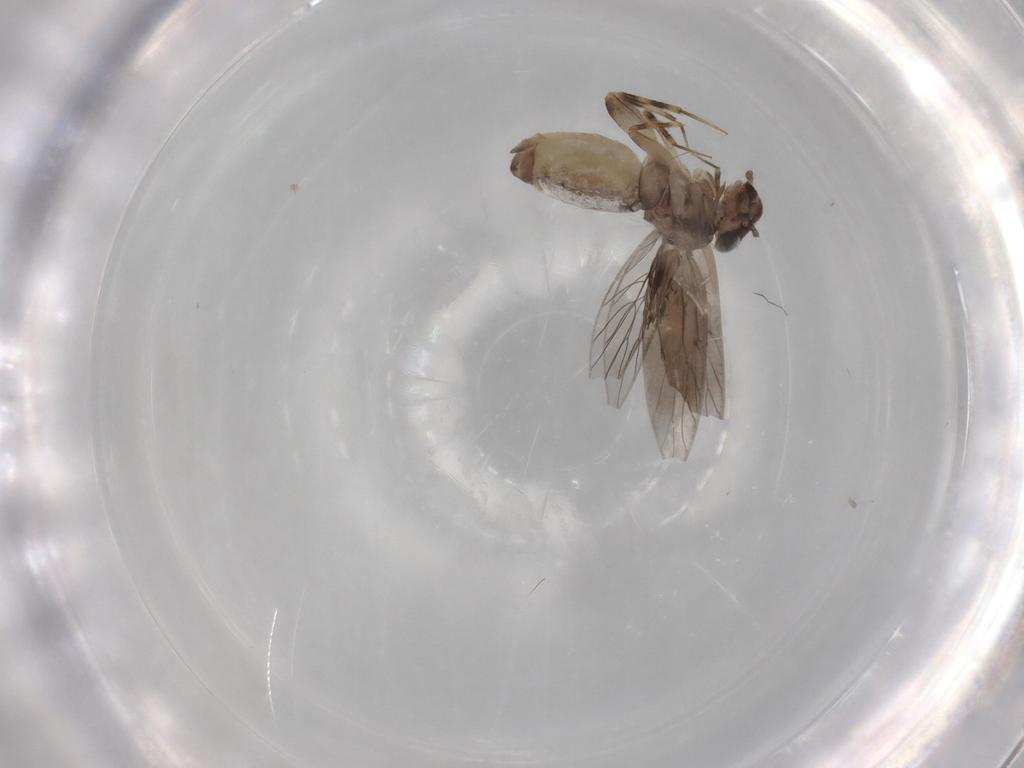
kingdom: Animalia
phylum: Arthropoda
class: Insecta
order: Psocodea
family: Lepidopsocidae
